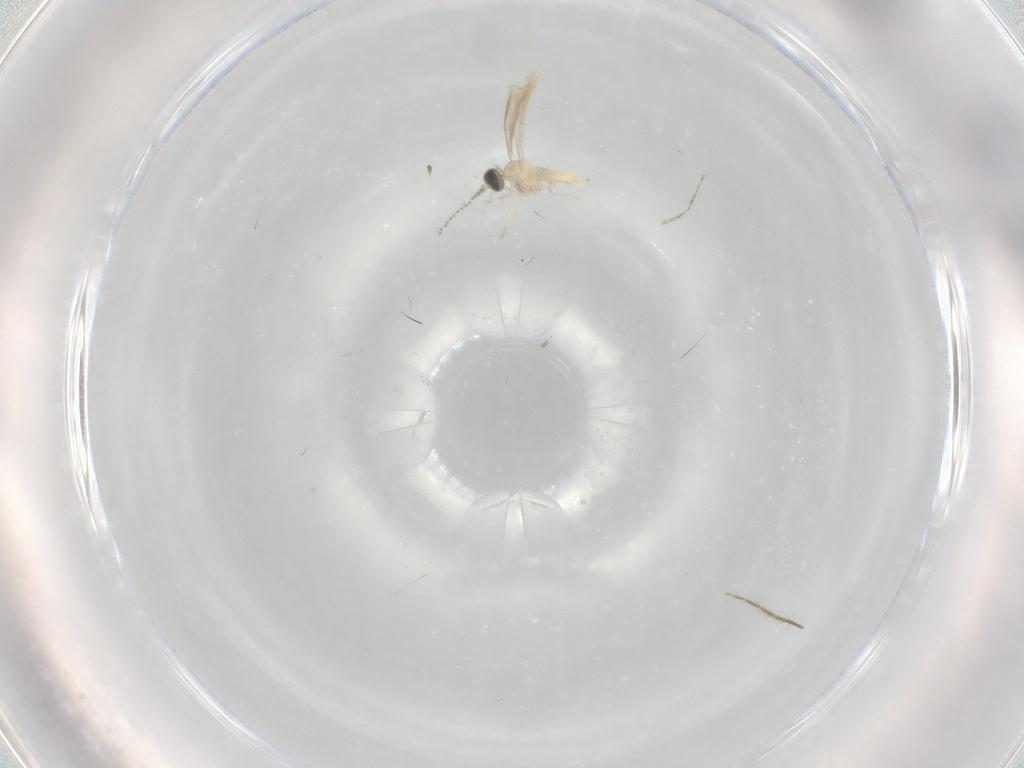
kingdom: Animalia
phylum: Arthropoda
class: Insecta
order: Diptera
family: Cecidomyiidae
